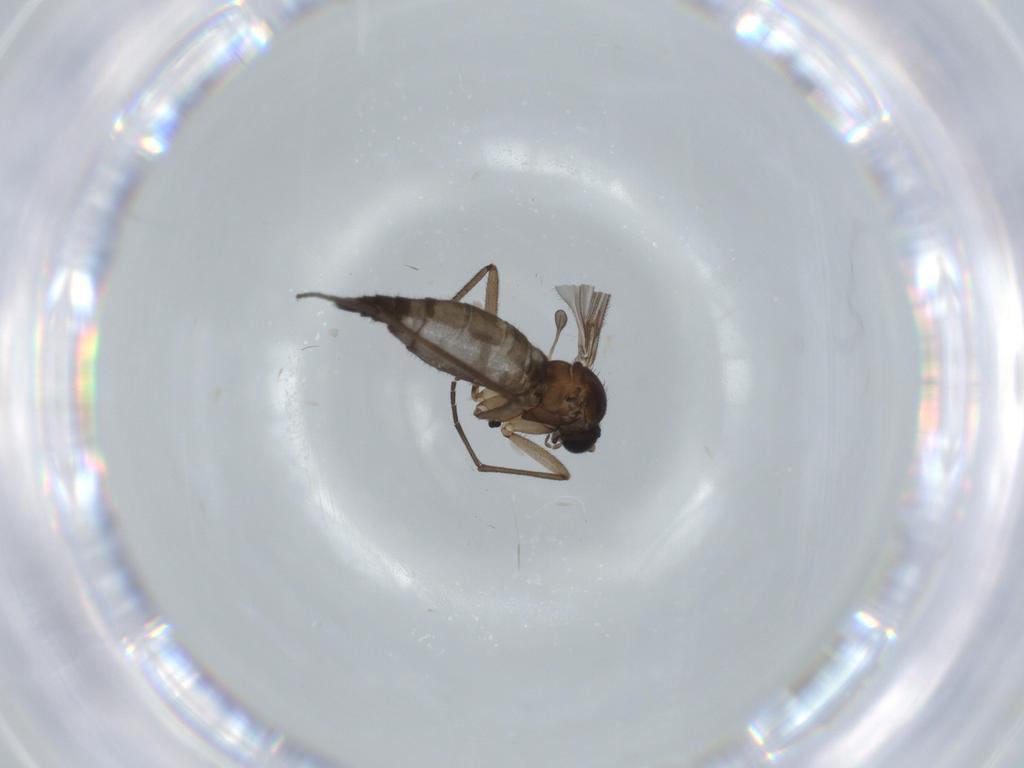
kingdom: Animalia
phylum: Arthropoda
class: Insecta
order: Diptera
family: Sciaridae
